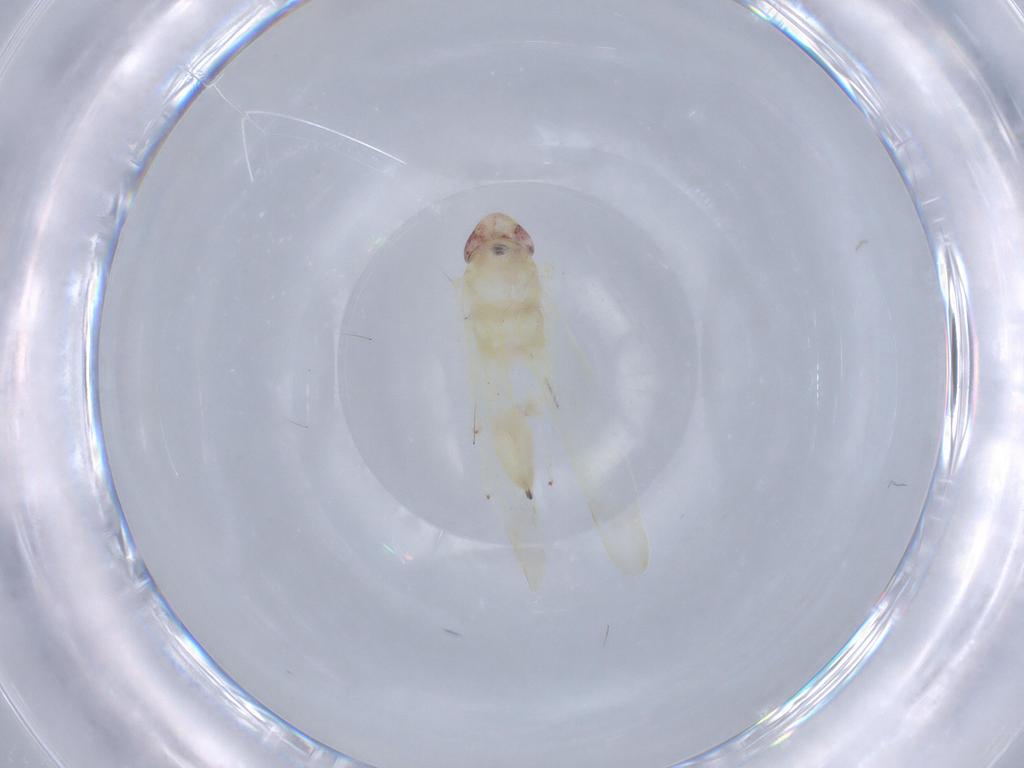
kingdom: Animalia
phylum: Arthropoda
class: Insecta
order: Hemiptera
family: Cicadellidae
